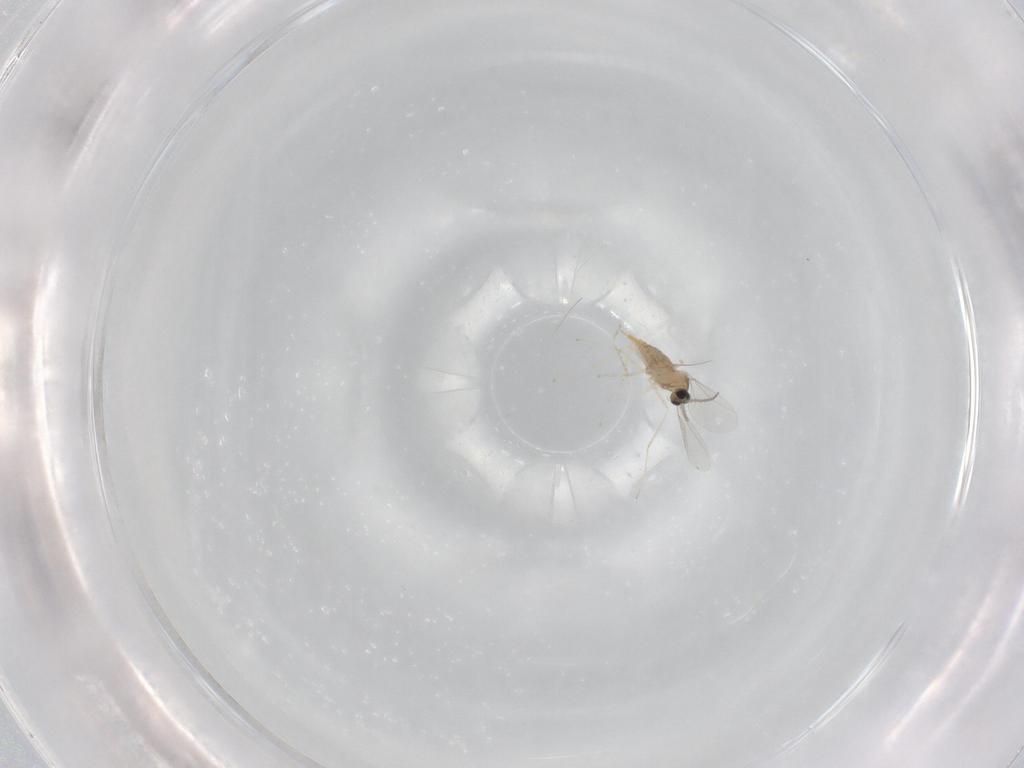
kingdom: Animalia
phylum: Arthropoda
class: Insecta
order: Diptera
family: Cecidomyiidae
